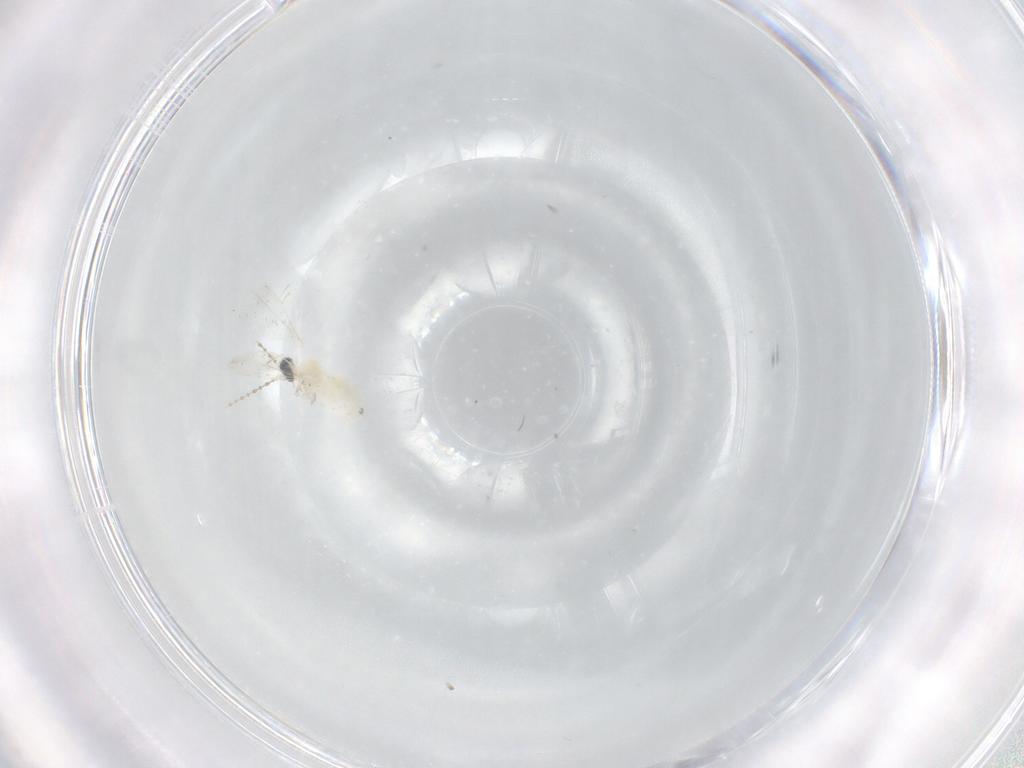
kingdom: Animalia
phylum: Arthropoda
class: Insecta
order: Diptera
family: Cecidomyiidae
